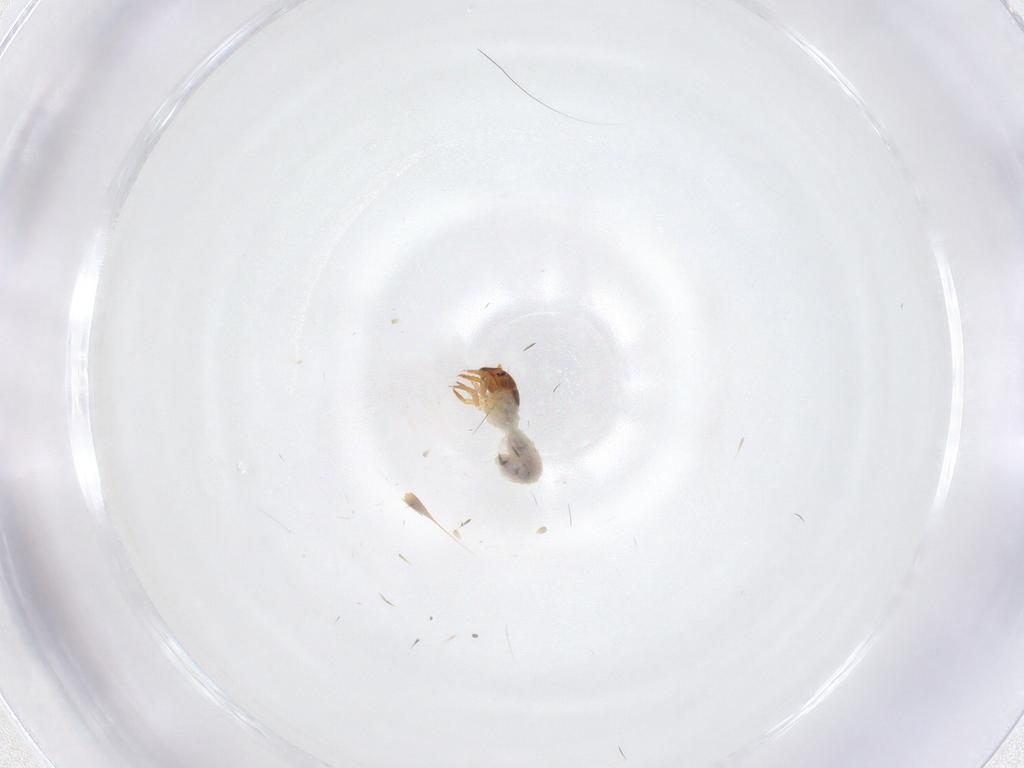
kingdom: Animalia
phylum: Arthropoda
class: Insecta
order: Coleoptera
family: Chrysomelidae
